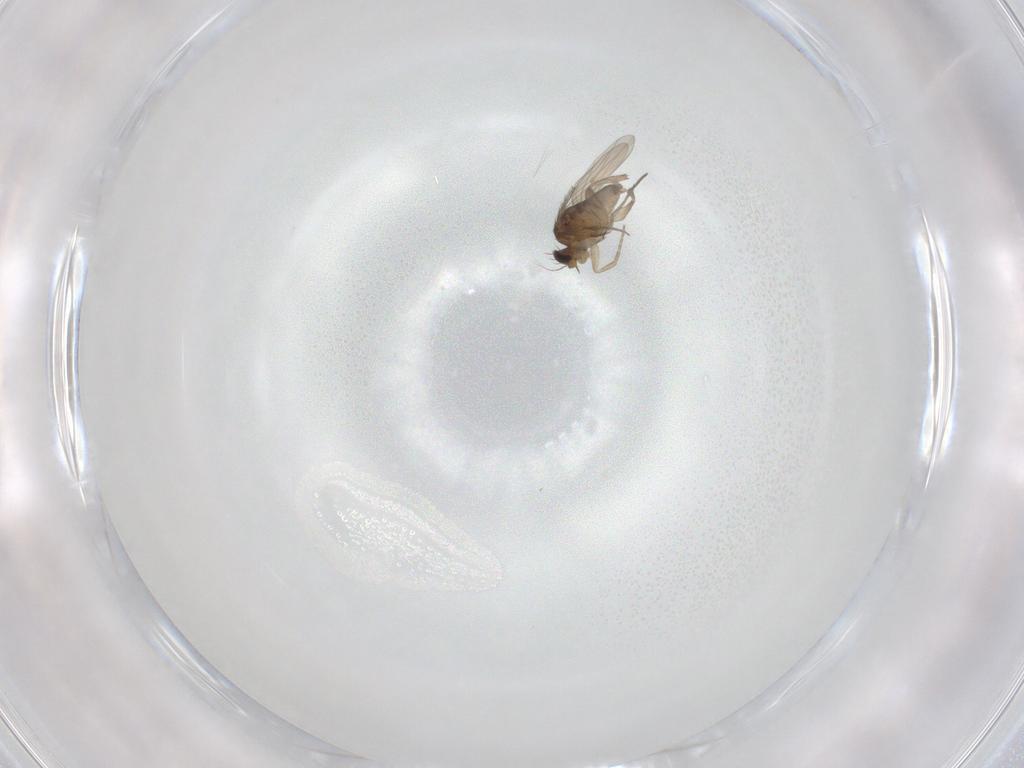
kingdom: Animalia
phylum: Arthropoda
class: Insecta
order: Diptera
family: Phoridae
